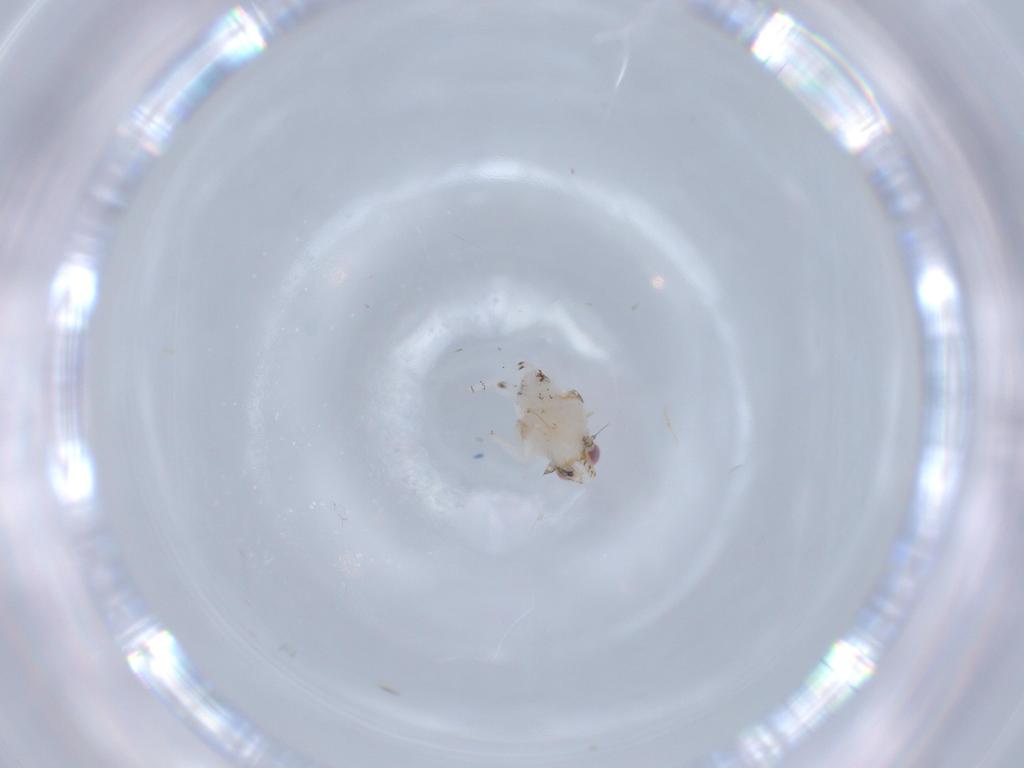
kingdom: Animalia
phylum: Arthropoda
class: Insecta
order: Hemiptera
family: Nogodinidae
